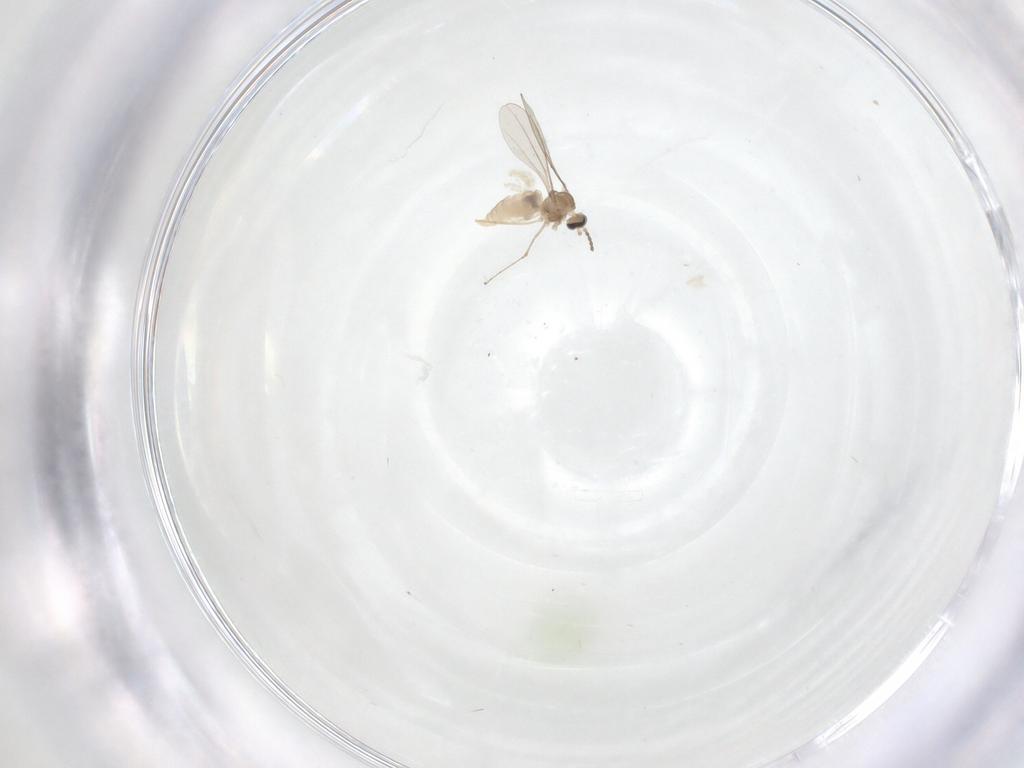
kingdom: Animalia
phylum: Arthropoda
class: Insecta
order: Diptera
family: Cecidomyiidae
